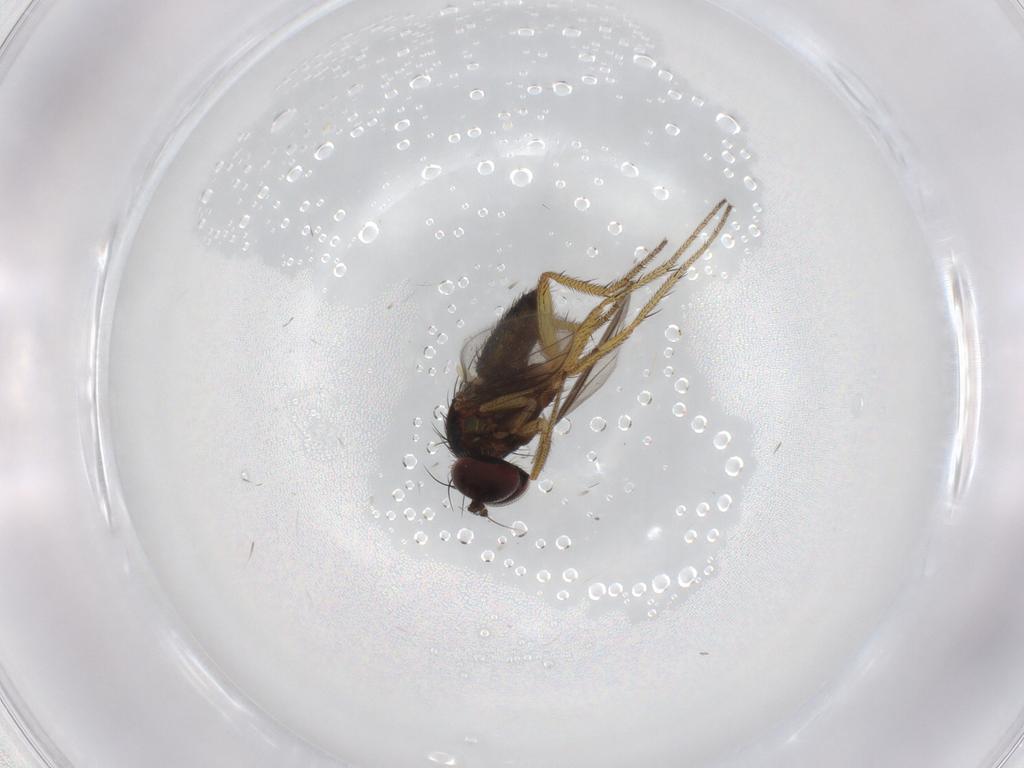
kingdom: Animalia
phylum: Arthropoda
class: Insecta
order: Diptera
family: Dolichopodidae
